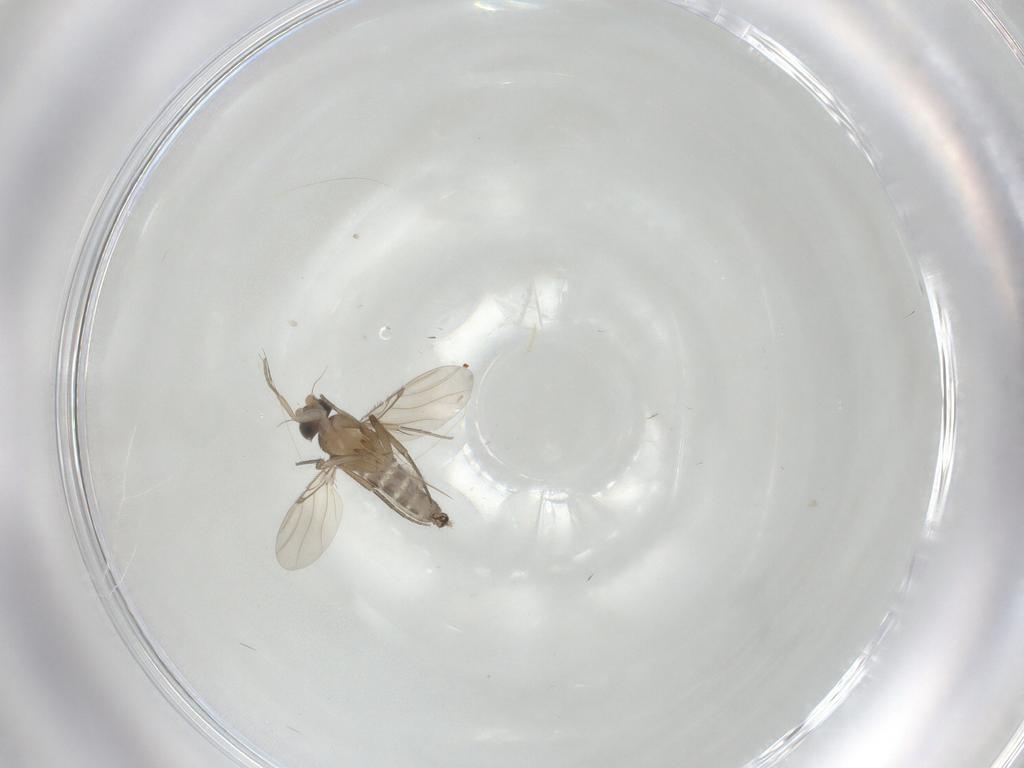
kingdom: Animalia
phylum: Arthropoda
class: Insecta
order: Diptera
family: Phoridae
